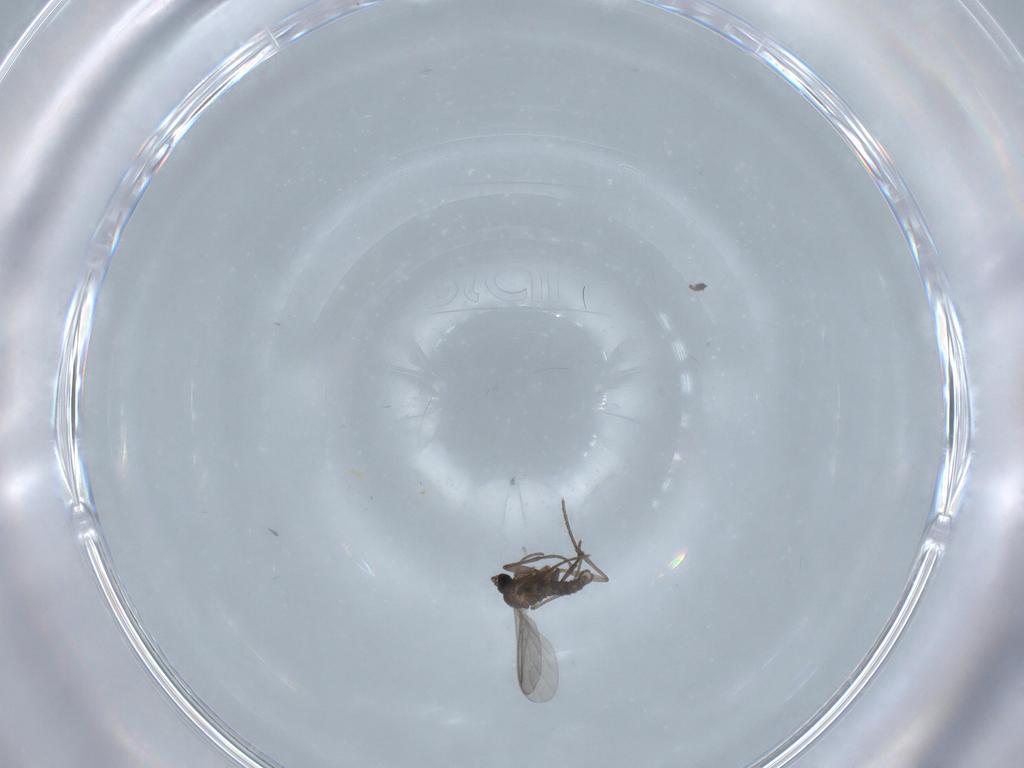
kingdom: Animalia
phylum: Arthropoda
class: Insecta
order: Diptera
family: Sciaridae
